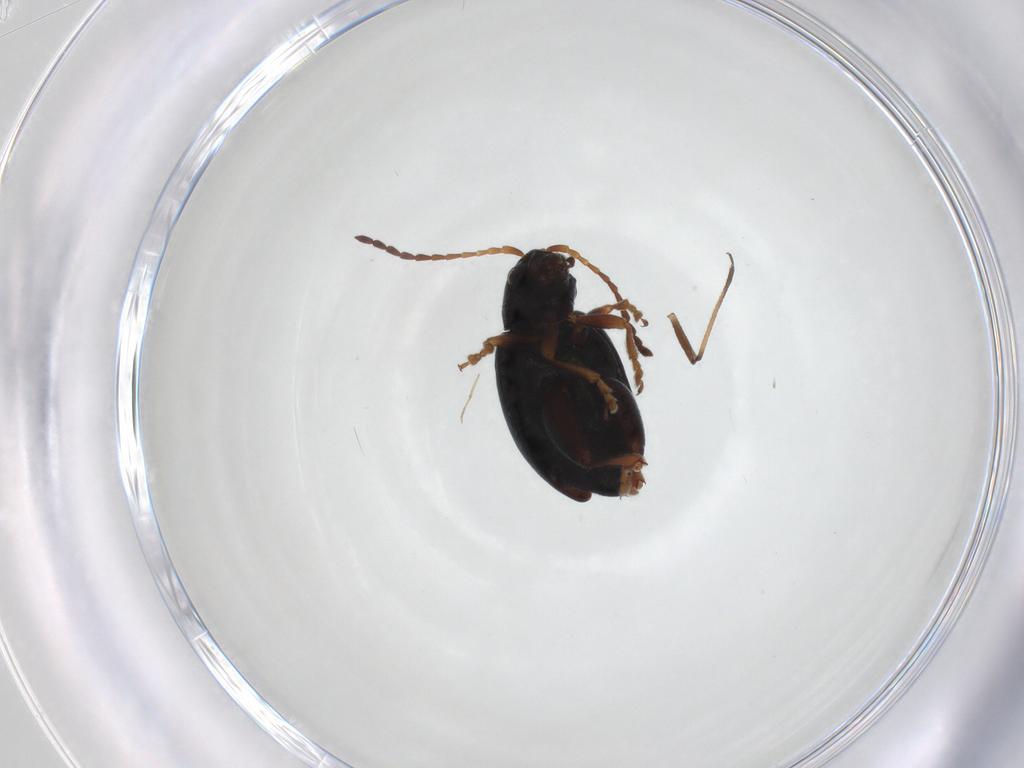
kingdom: Animalia
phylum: Arthropoda
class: Insecta
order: Coleoptera
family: Chrysomelidae
